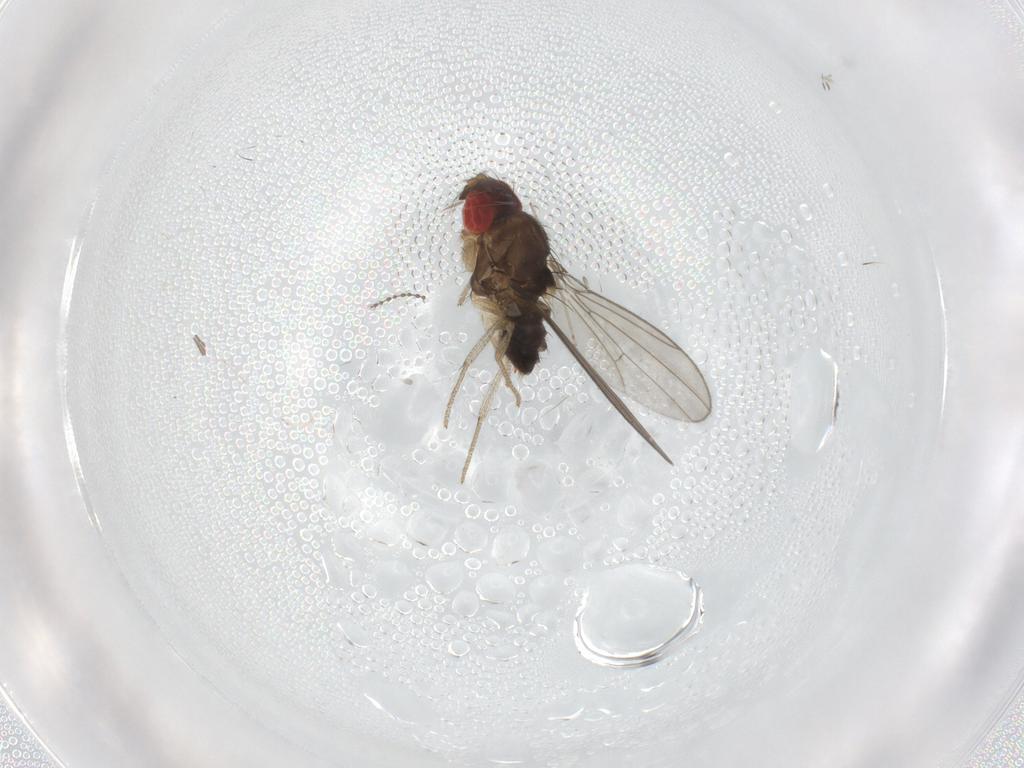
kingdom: Animalia
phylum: Arthropoda
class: Insecta
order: Diptera
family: Cecidomyiidae
